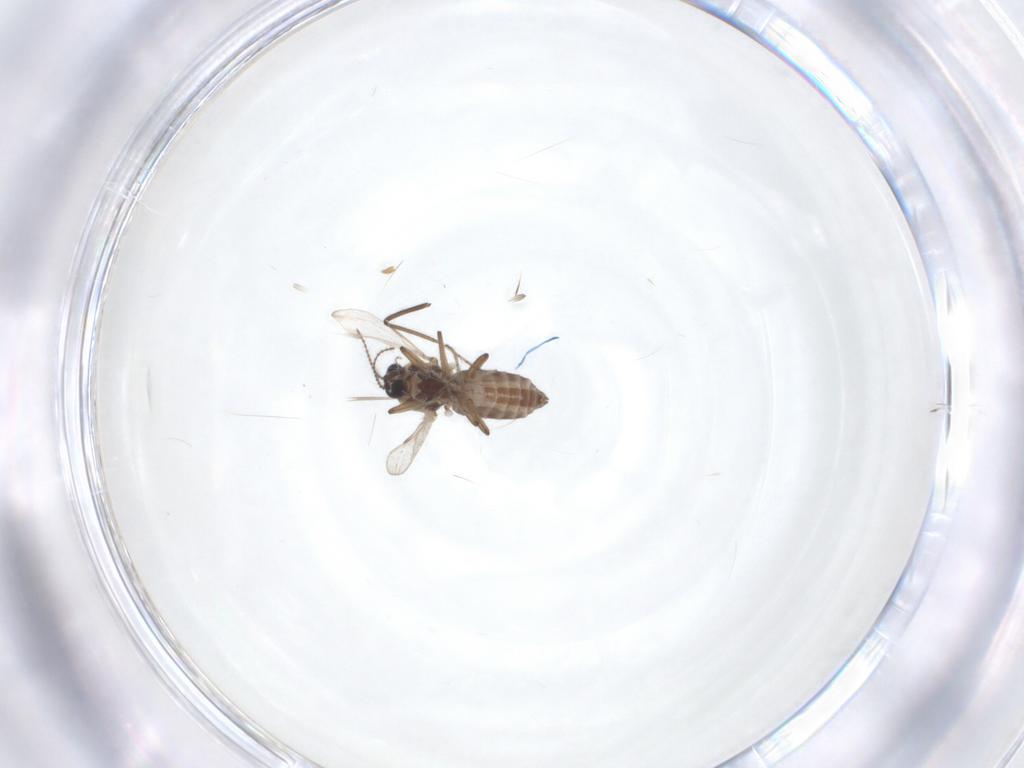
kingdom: Animalia
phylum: Arthropoda
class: Insecta
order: Diptera
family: Ceratopogonidae
